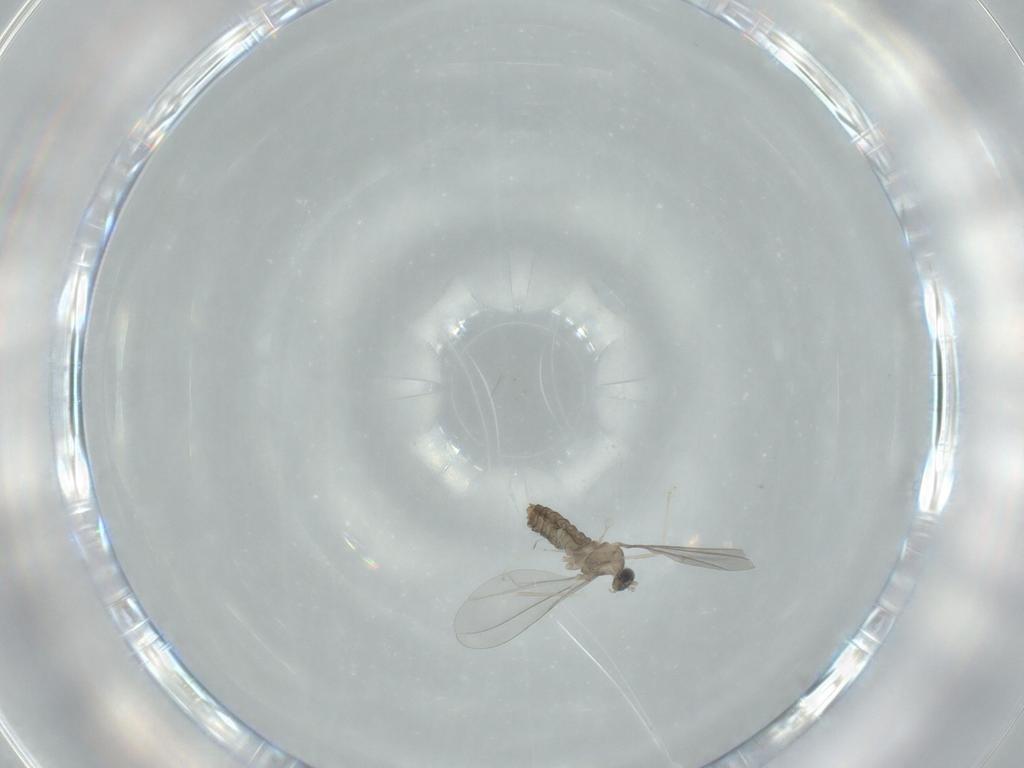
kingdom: Animalia
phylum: Arthropoda
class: Insecta
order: Diptera
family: Cecidomyiidae
